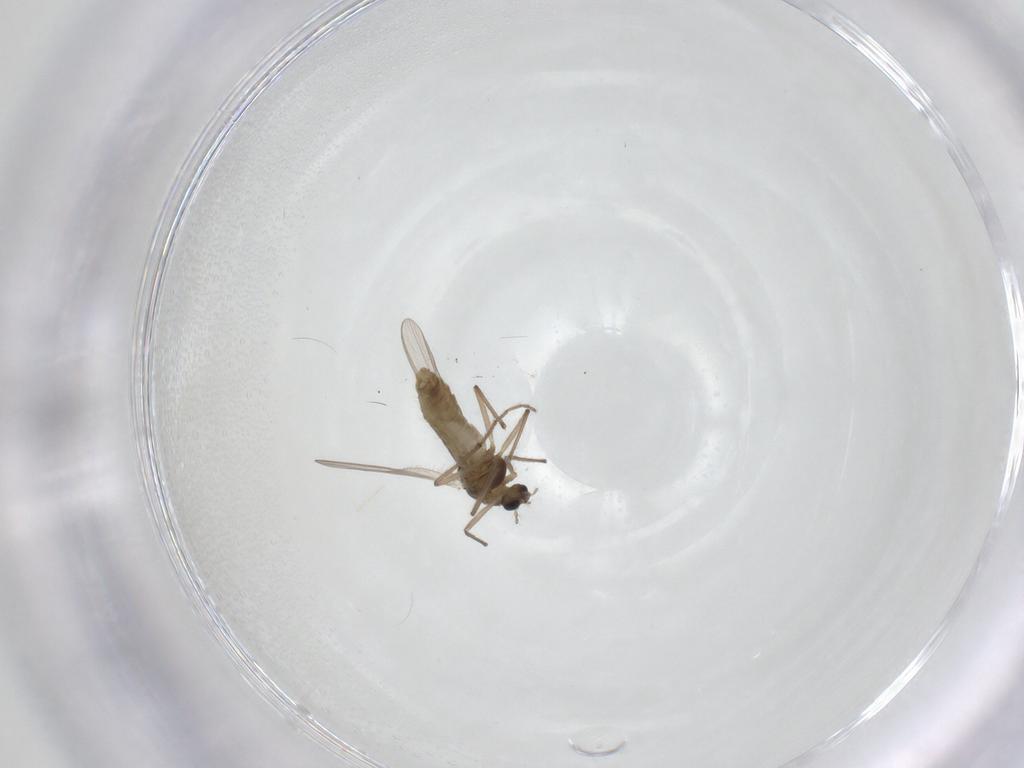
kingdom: Animalia
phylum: Arthropoda
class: Insecta
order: Diptera
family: Chironomidae
